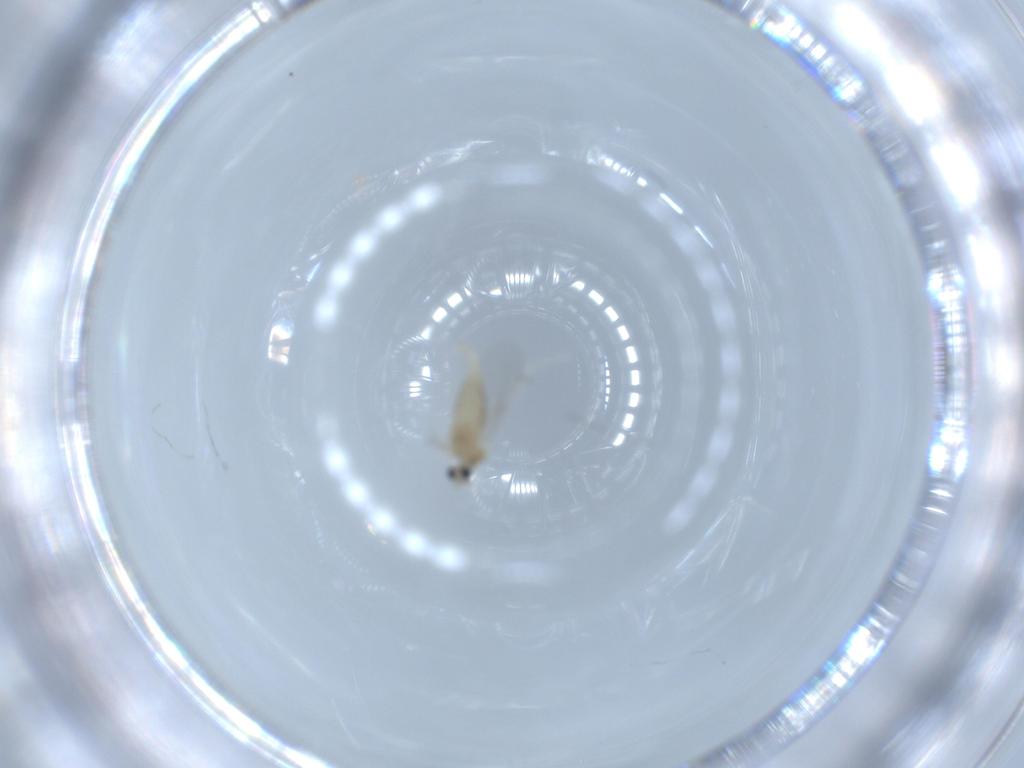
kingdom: Animalia
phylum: Arthropoda
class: Insecta
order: Diptera
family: Cecidomyiidae
